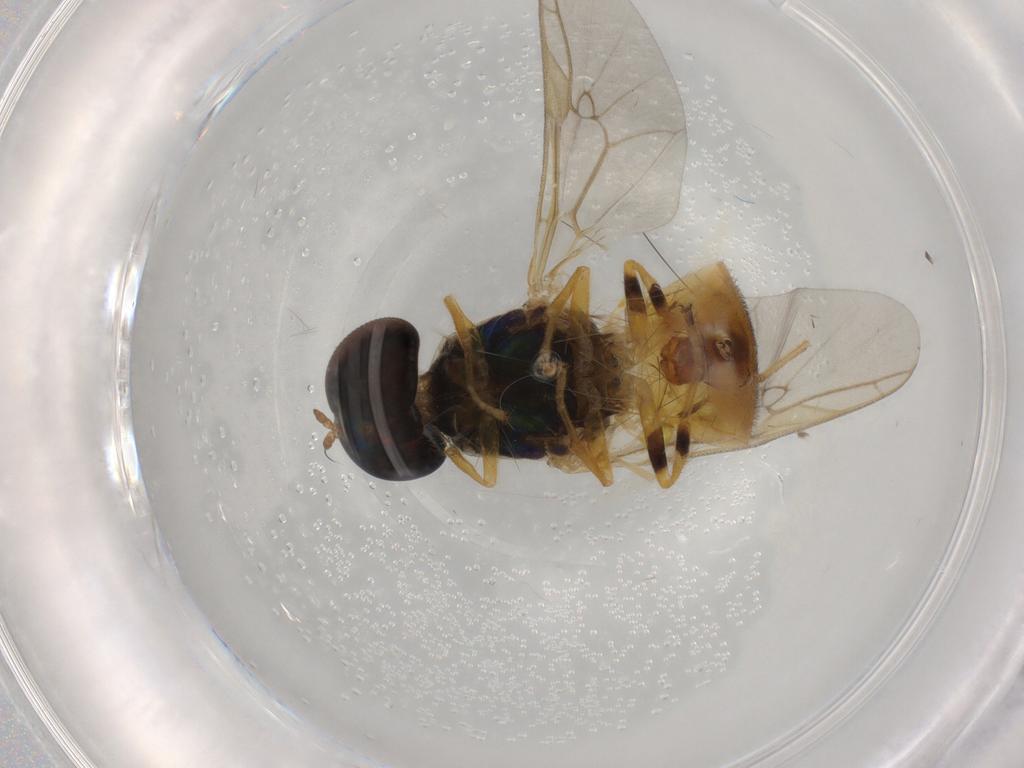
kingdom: Animalia
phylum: Arthropoda
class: Insecta
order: Diptera
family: Stratiomyidae
